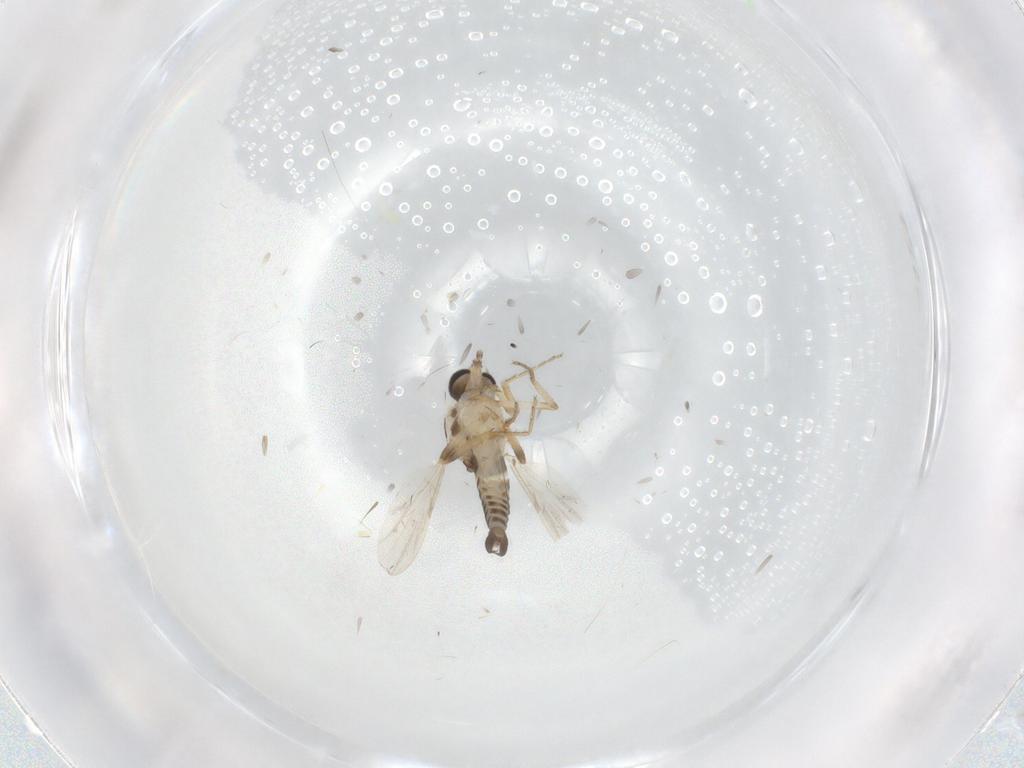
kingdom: Animalia
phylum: Arthropoda
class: Insecta
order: Diptera
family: Ceratopogonidae
